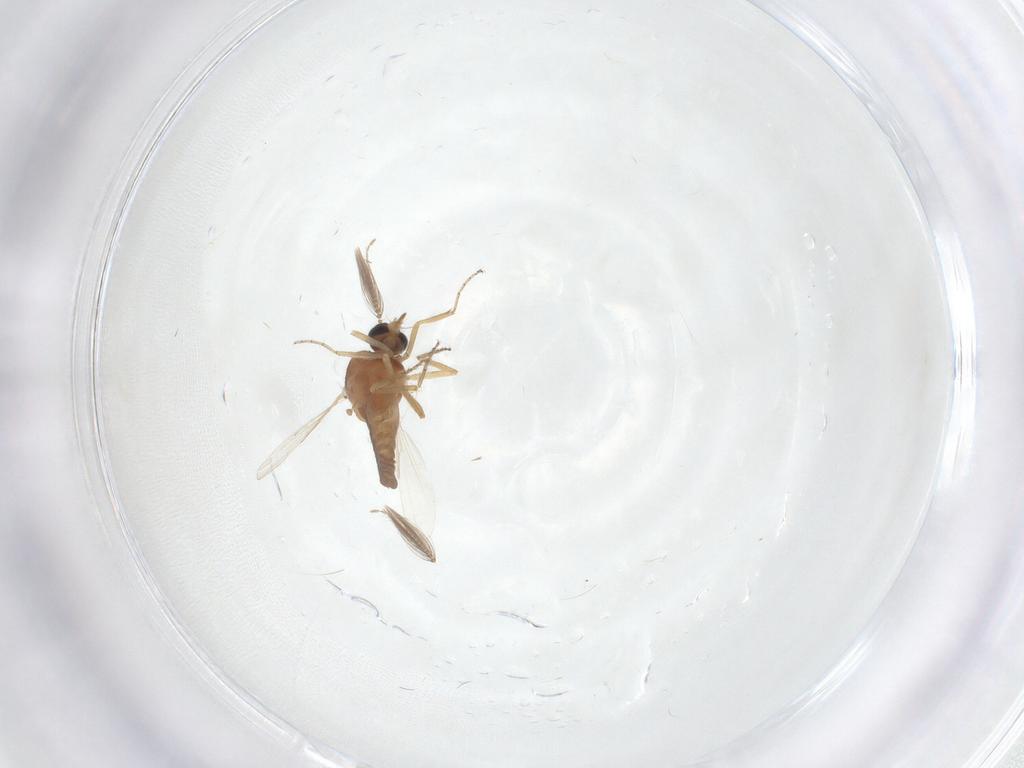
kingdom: Animalia
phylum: Arthropoda
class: Insecta
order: Diptera
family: Ceratopogonidae
